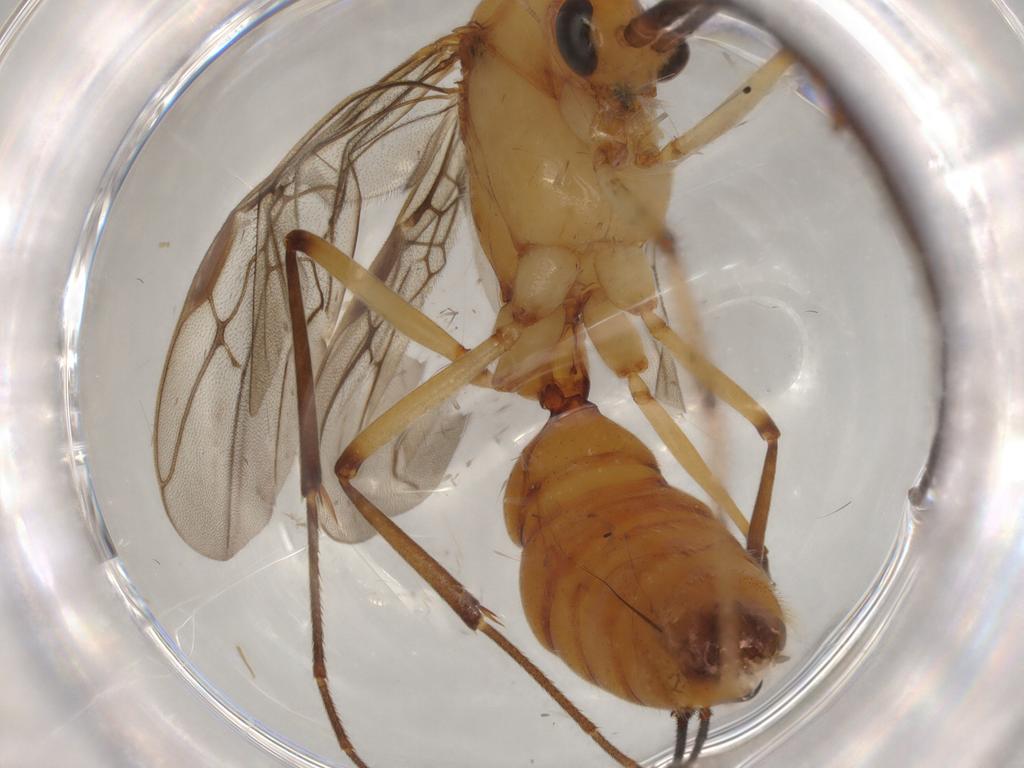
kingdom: Animalia
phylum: Arthropoda
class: Insecta
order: Hymenoptera
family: Formicidae
